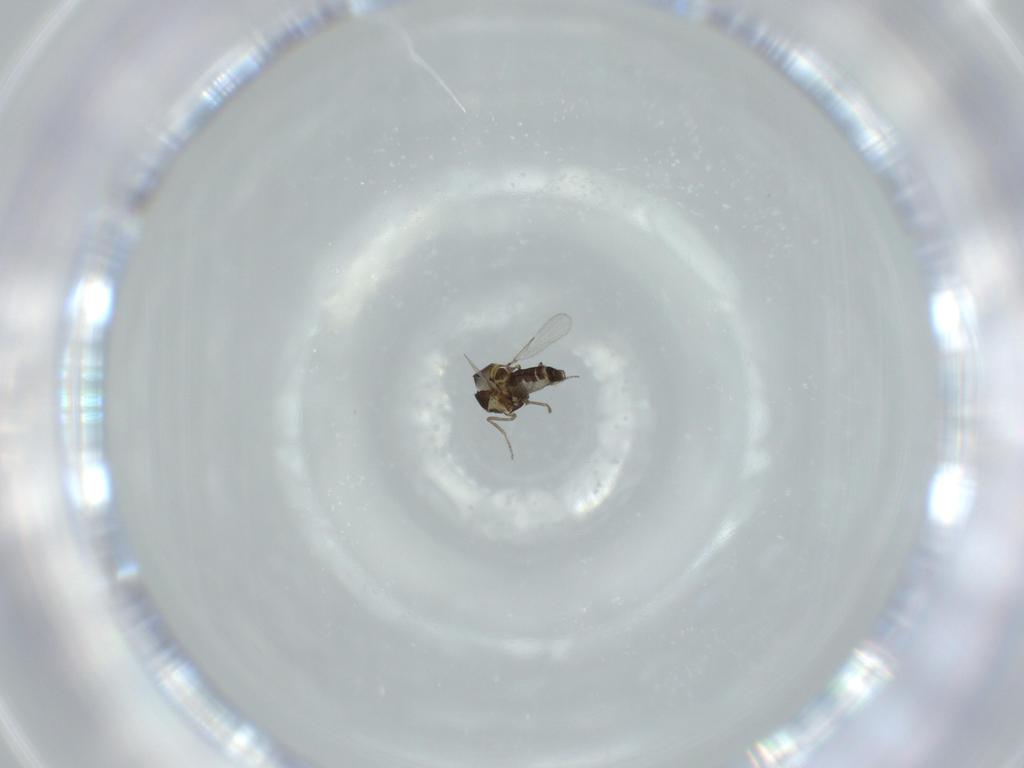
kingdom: Animalia
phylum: Arthropoda
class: Insecta
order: Diptera
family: Ceratopogonidae
